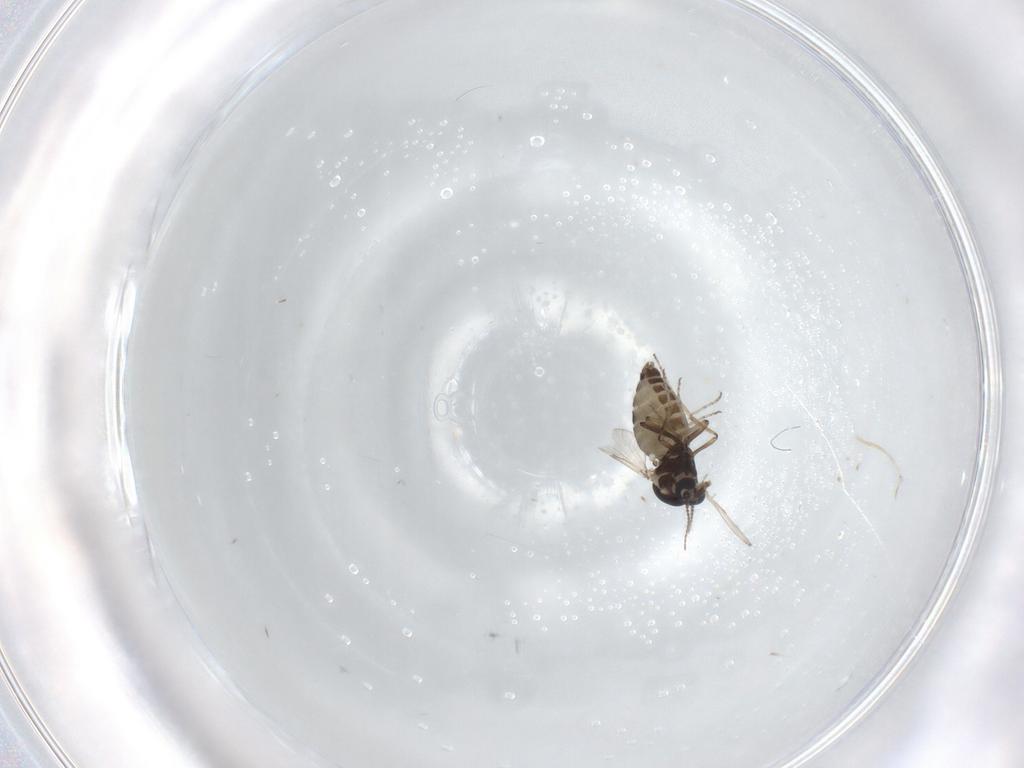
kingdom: Animalia
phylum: Arthropoda
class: Insecta
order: Diptera
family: Ceratopogonidae
